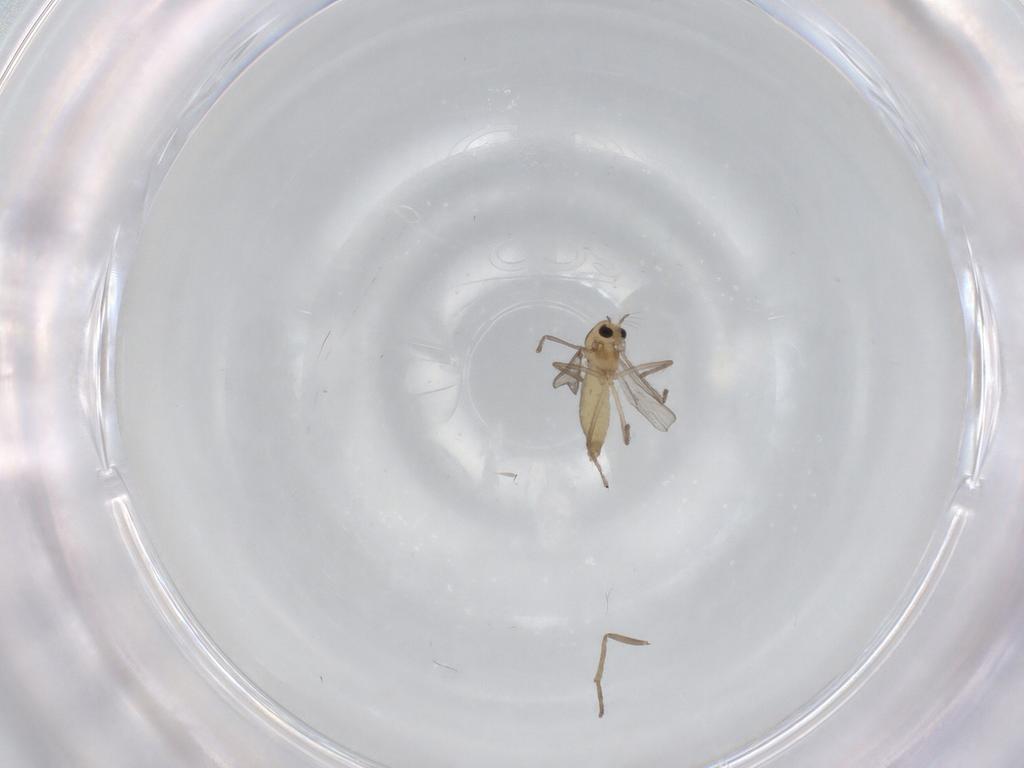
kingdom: Animalia
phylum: Arthropoda
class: Insecta
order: Diptera
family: Chironomidae
